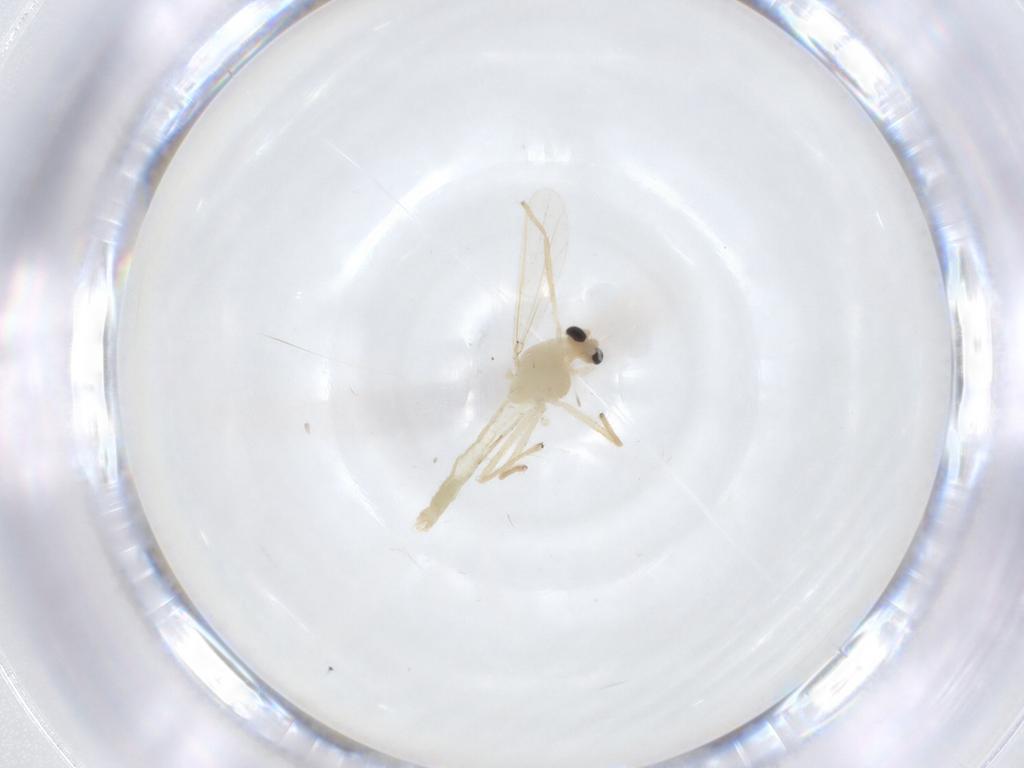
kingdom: Animalia
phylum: Arthropoda
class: Insecta
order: Diptera
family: Chironomidae
